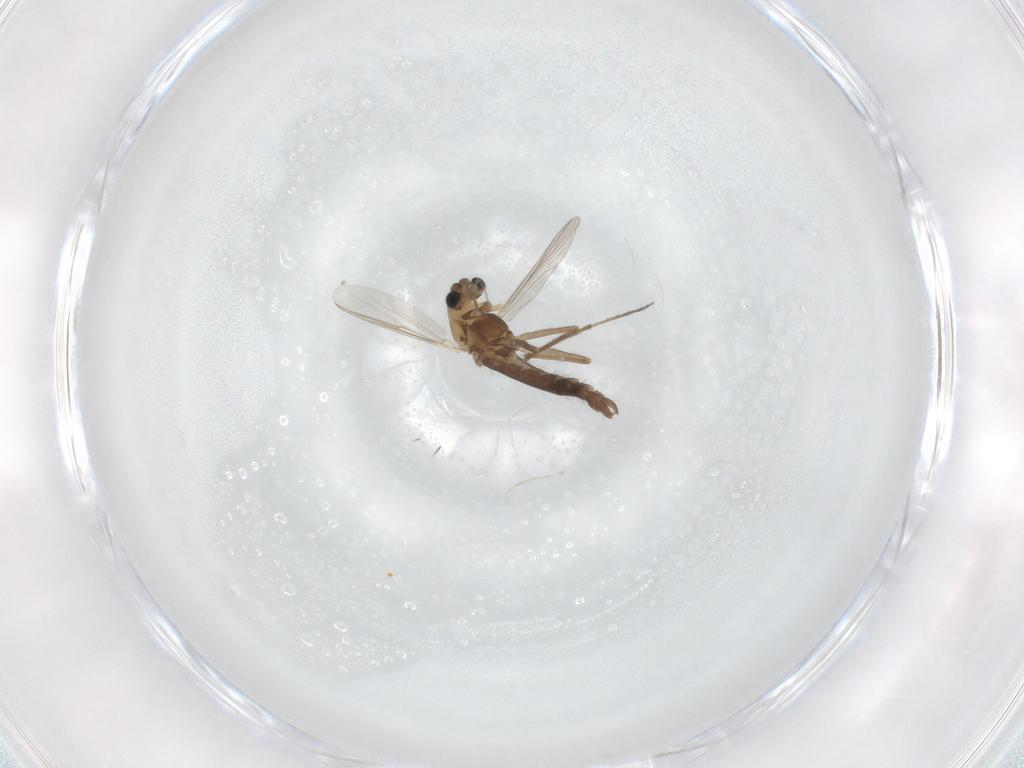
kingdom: Animalia
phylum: Arthropoda
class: Insecta
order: Diptera
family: Chironomidae
